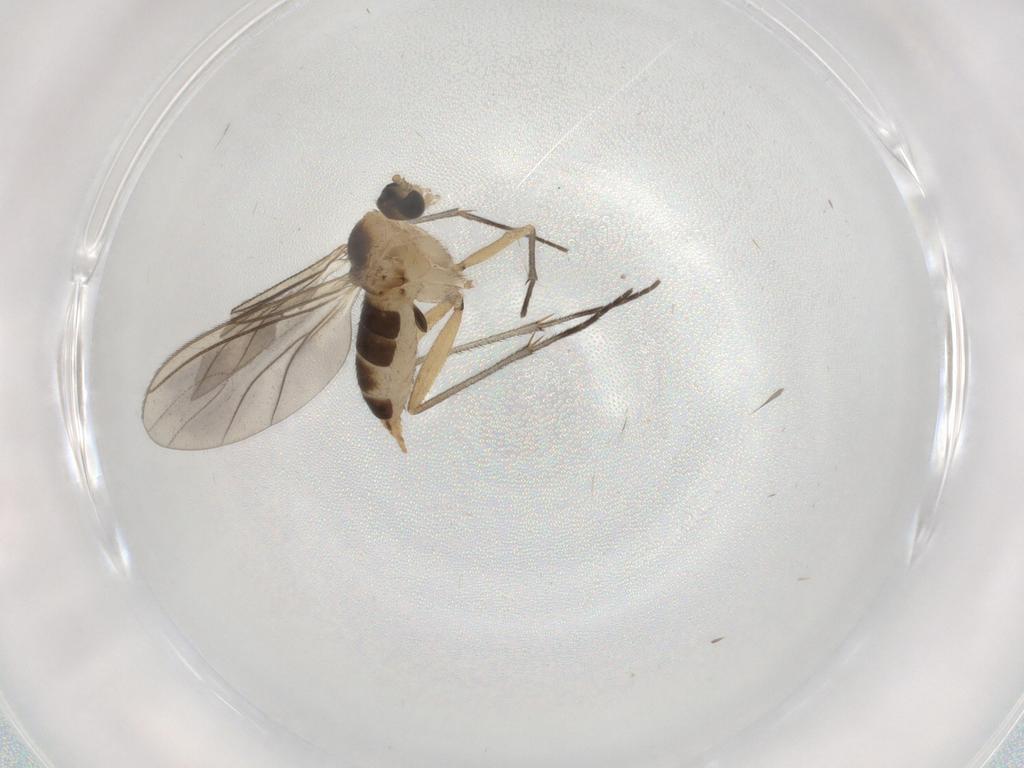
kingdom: Animalia
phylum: Arthropoda
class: Insecta
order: Diptera
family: Sciaridae
